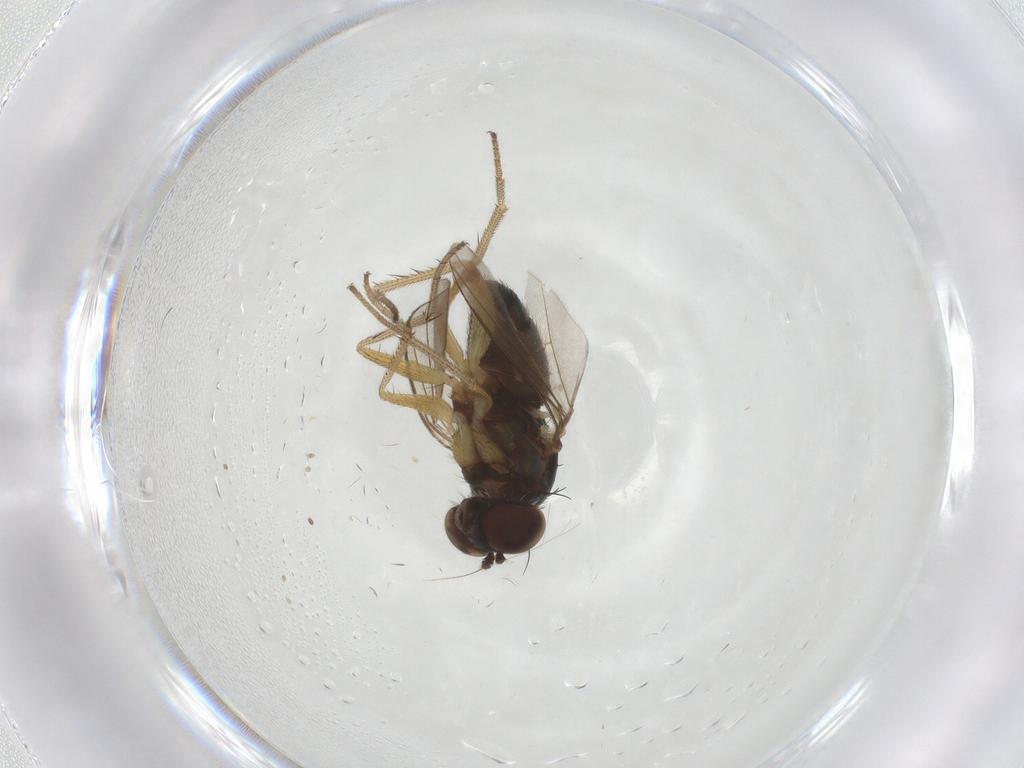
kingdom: Animalia
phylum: Arthropoda
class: Insecta
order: Diptera
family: Dolichopodidae
